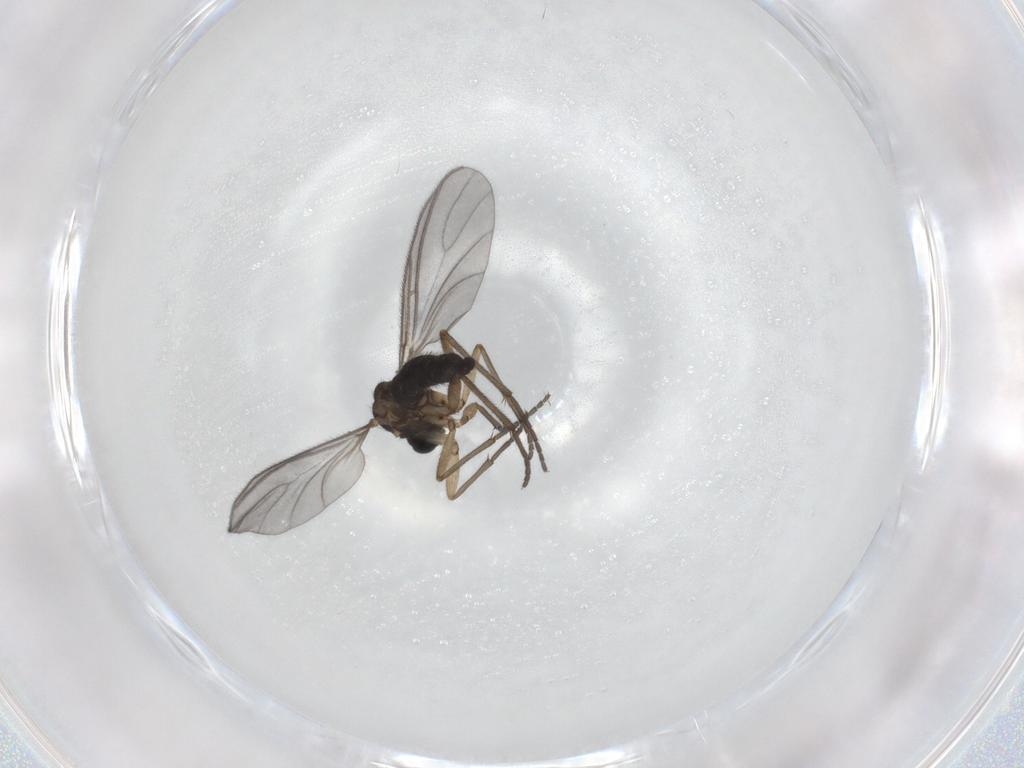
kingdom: Animalia
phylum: Arthropoda
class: Insecta
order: Diptera
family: Sciaridae
